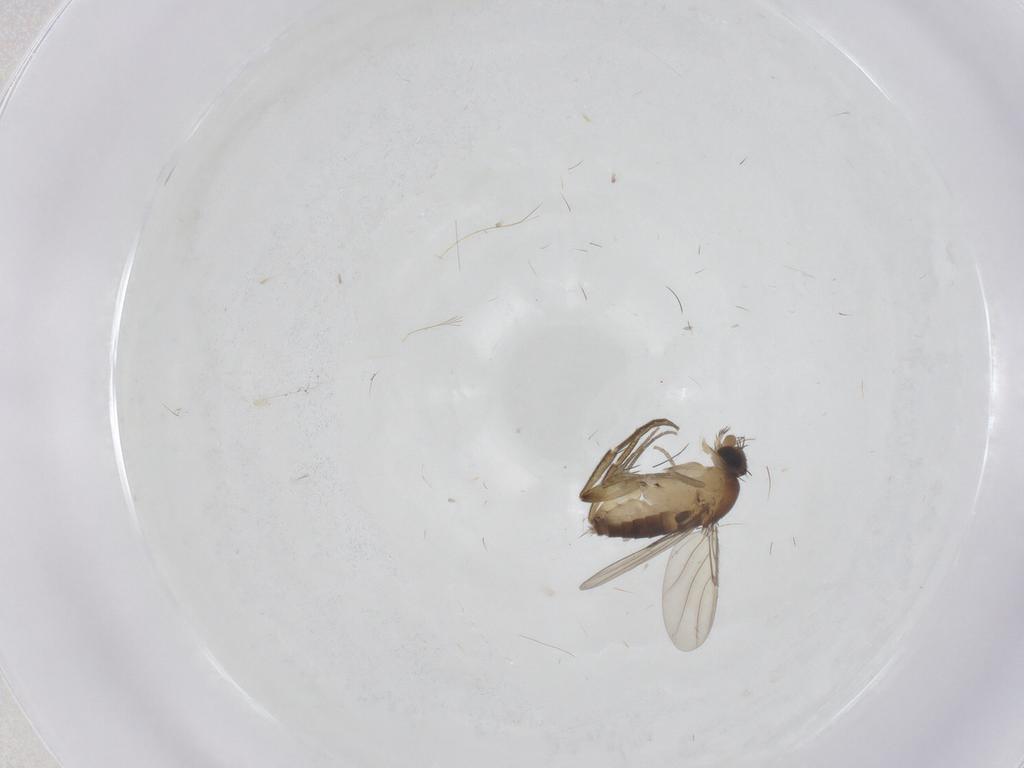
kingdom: Animalia
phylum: Arthropoda
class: Insecta
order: Diptera
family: Phoridae
